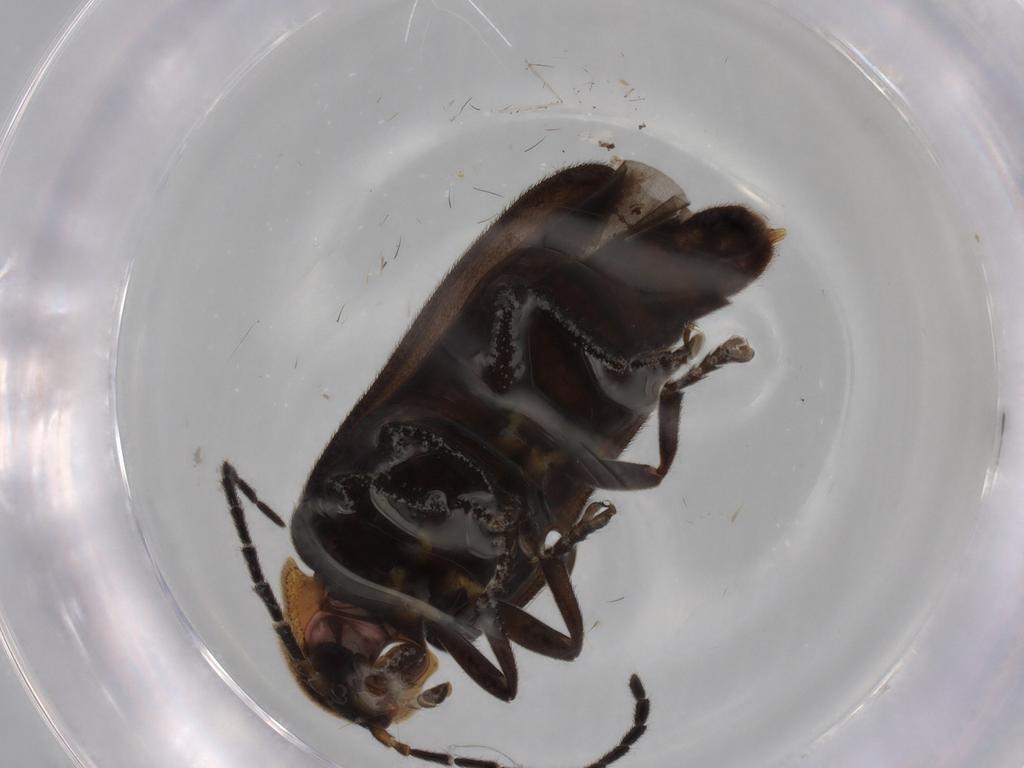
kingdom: Animalia
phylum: Arthropoda
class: Insecta
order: Coleoptera
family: Ptilodactylidae
